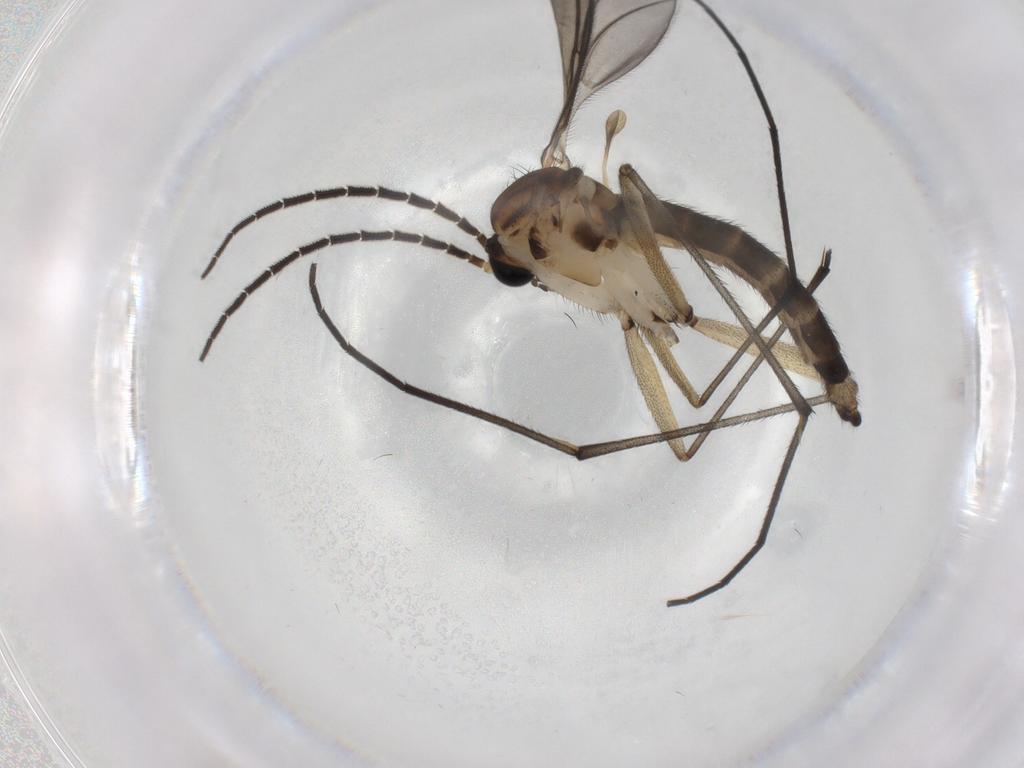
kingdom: Animalia
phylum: Arthropoda
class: Insecta
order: Diptera
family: Sciaridae
